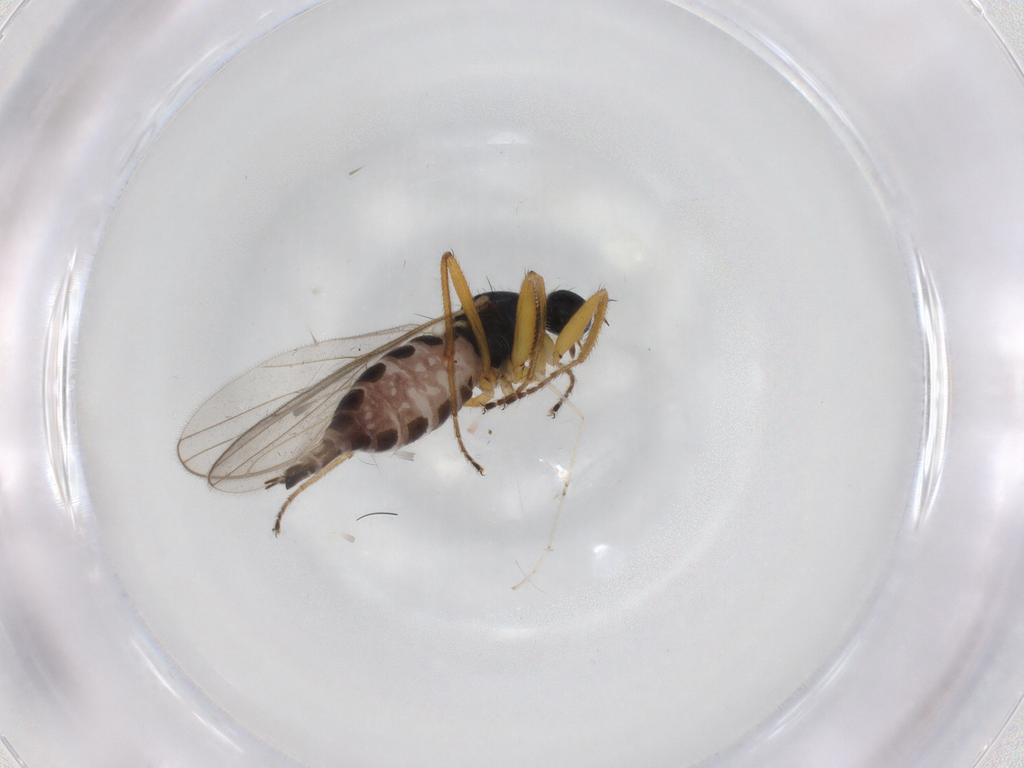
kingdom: Animalia
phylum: Arthropoda
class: Insecta
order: Diptera
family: Hybotidae
